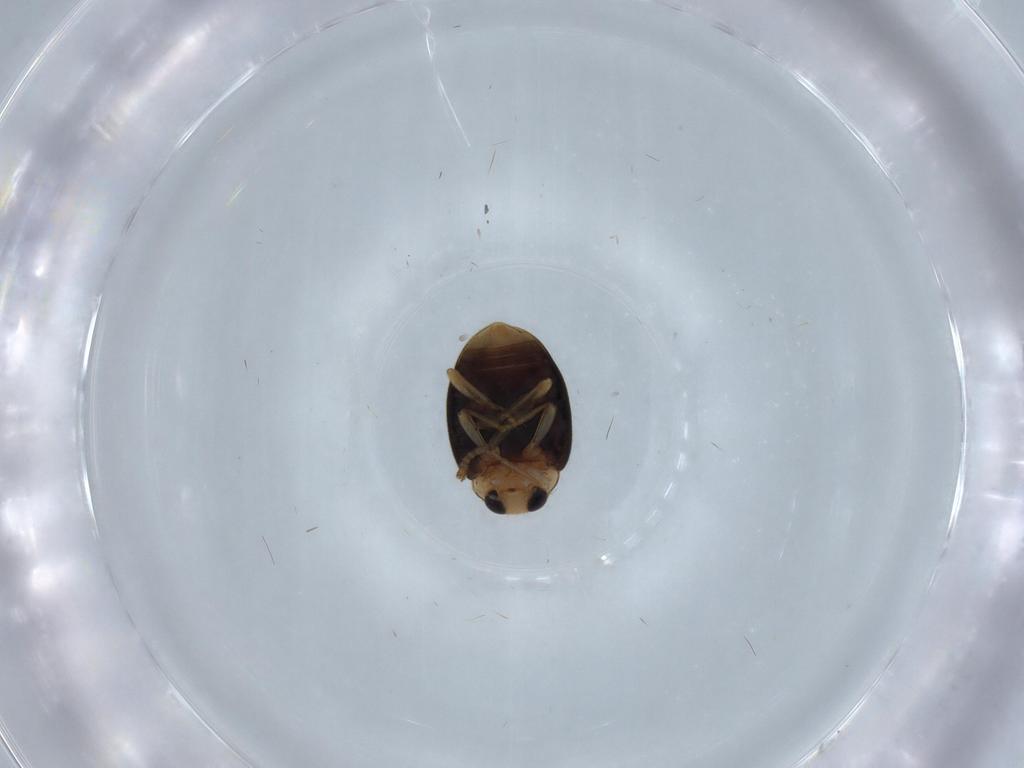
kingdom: Animalia
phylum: Arthropoda
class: Insecta
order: Coleoptera
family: Coccinellidae
